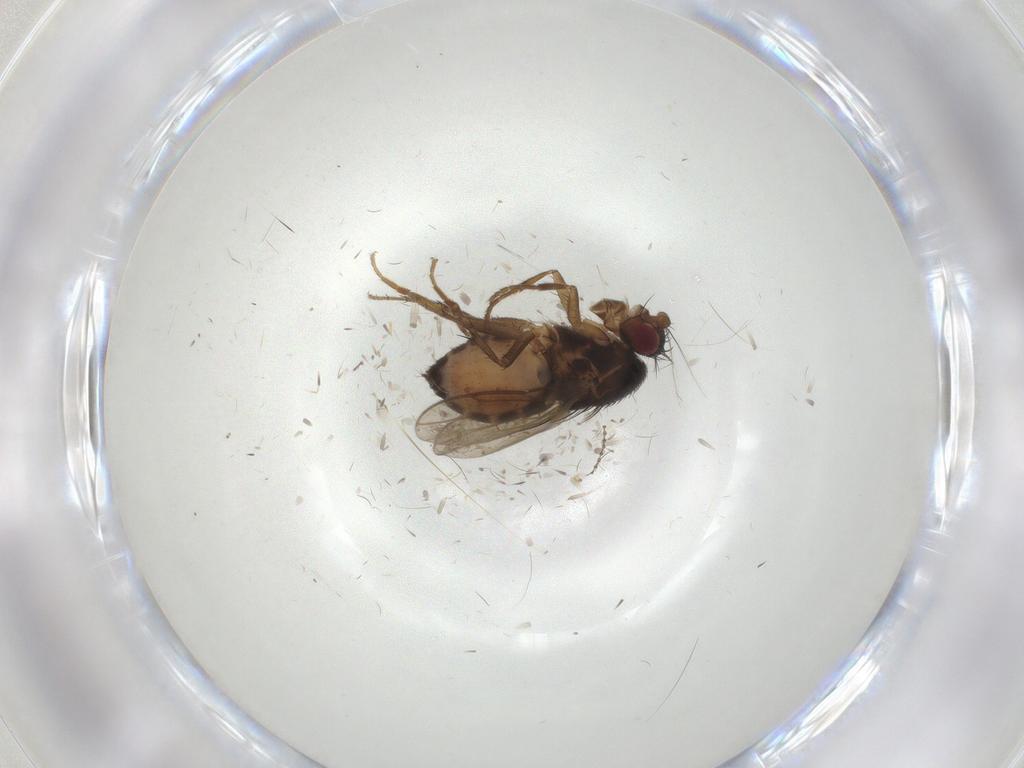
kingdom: Animalia
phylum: Arthropoda
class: Insecta
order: Diptera
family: Sphaeroceridae
